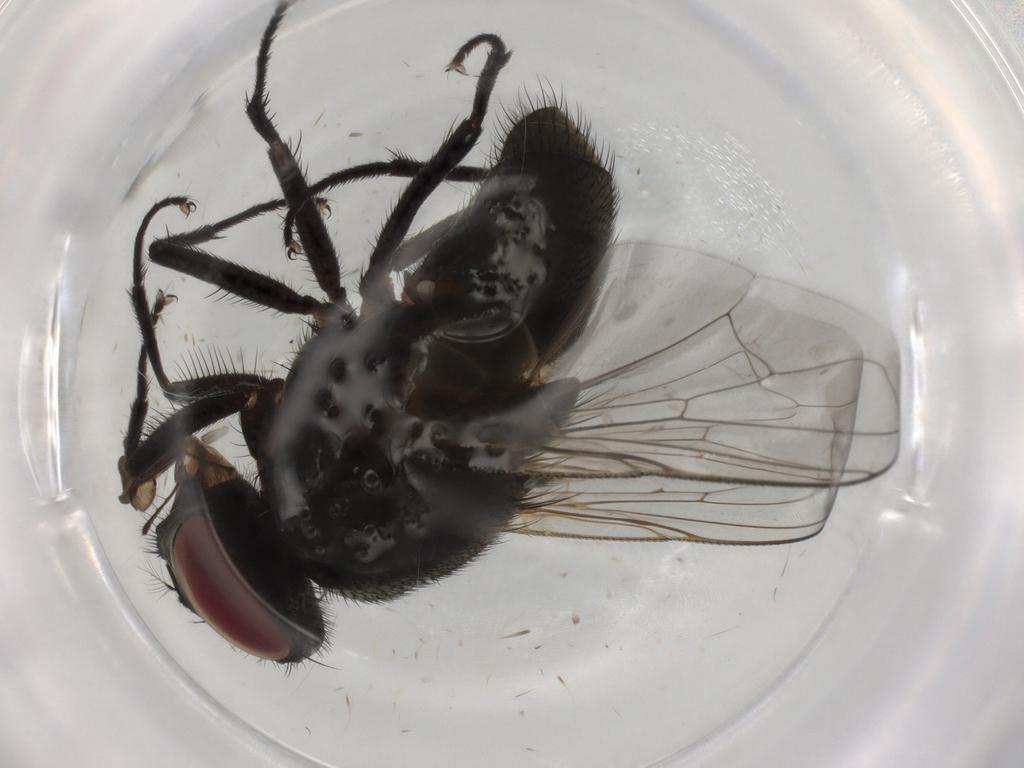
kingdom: Animalia
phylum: Arthropoda
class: Insecta
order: Diptera
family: Muscidae
